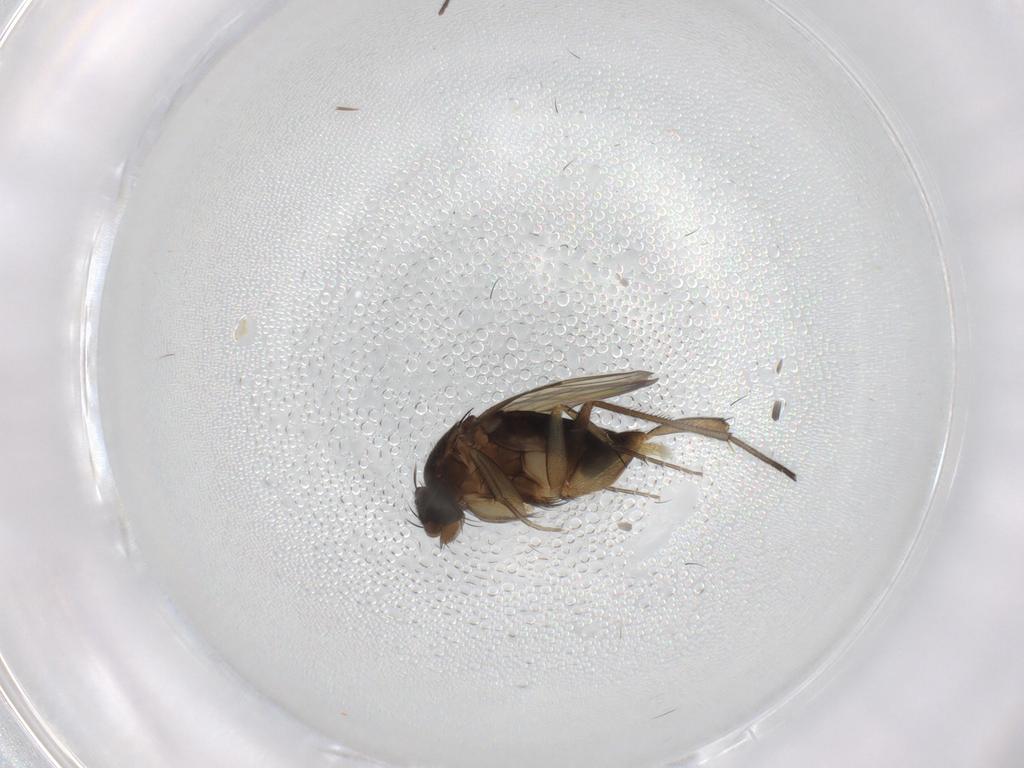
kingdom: Animalia
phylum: Arthropoda
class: Insecta
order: Diptera
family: Phoridae
